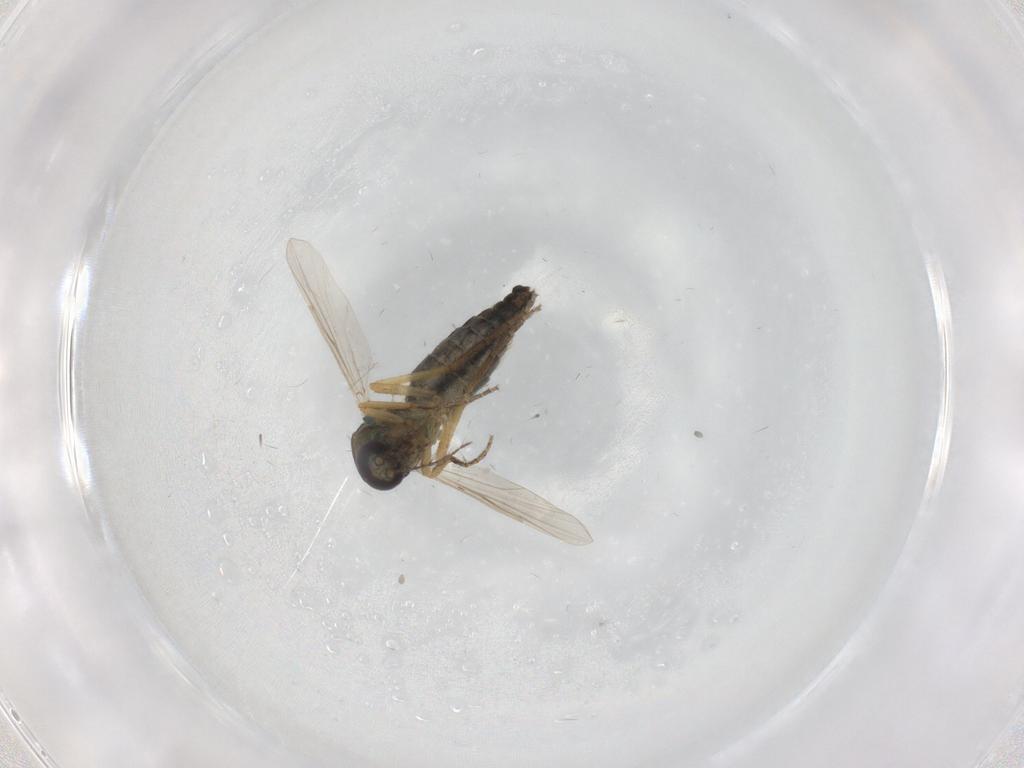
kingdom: Animalia
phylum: Arthropoda
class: Insecta
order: Diptera
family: Ceratopogonidae
